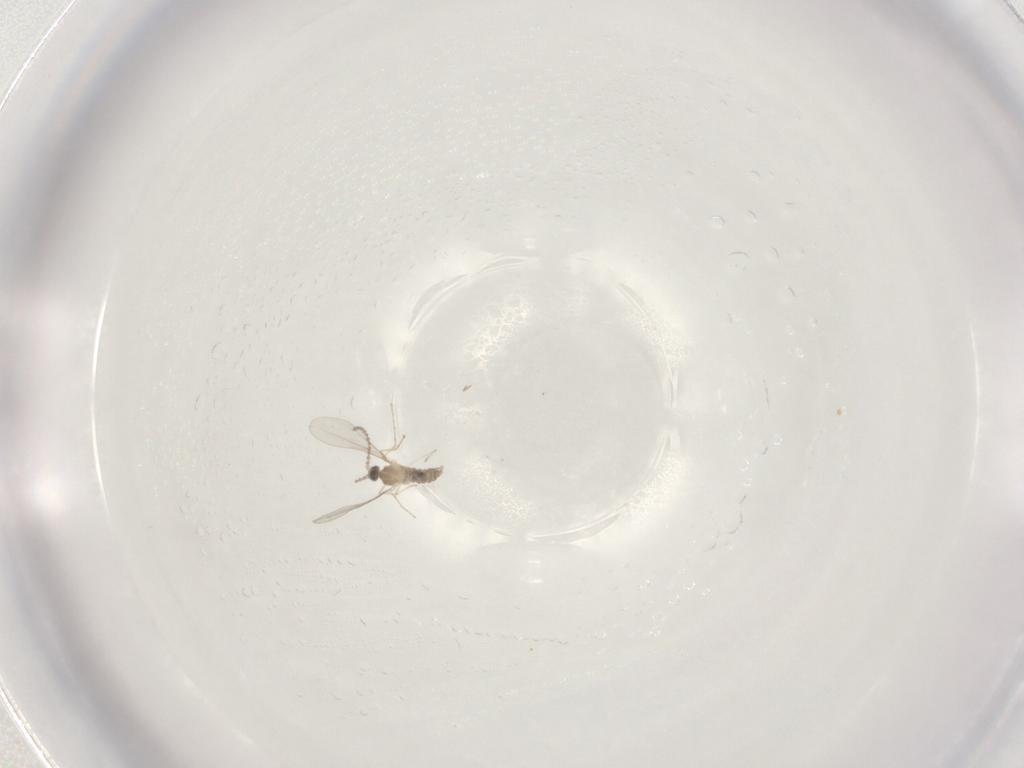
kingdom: Animalia
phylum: Arthropoda
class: Insecta
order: Diptera
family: Cecidomyiidae
